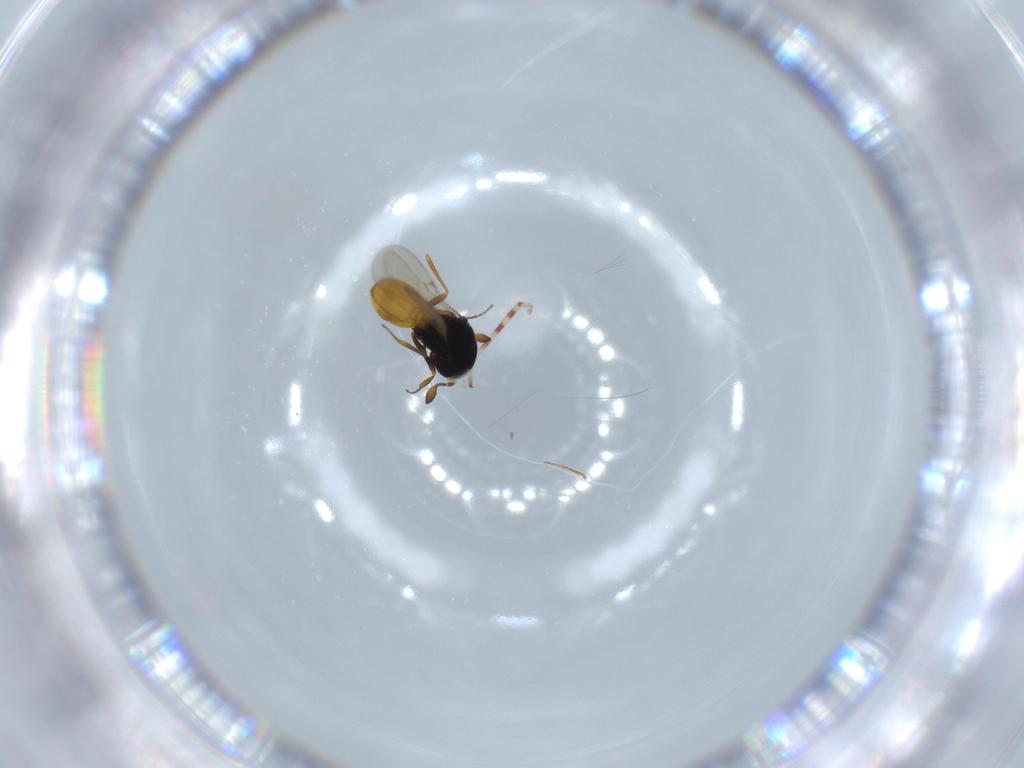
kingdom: Animalia
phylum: Arthropoda
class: Insecta
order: Hymenoptera
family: Scelionidae
